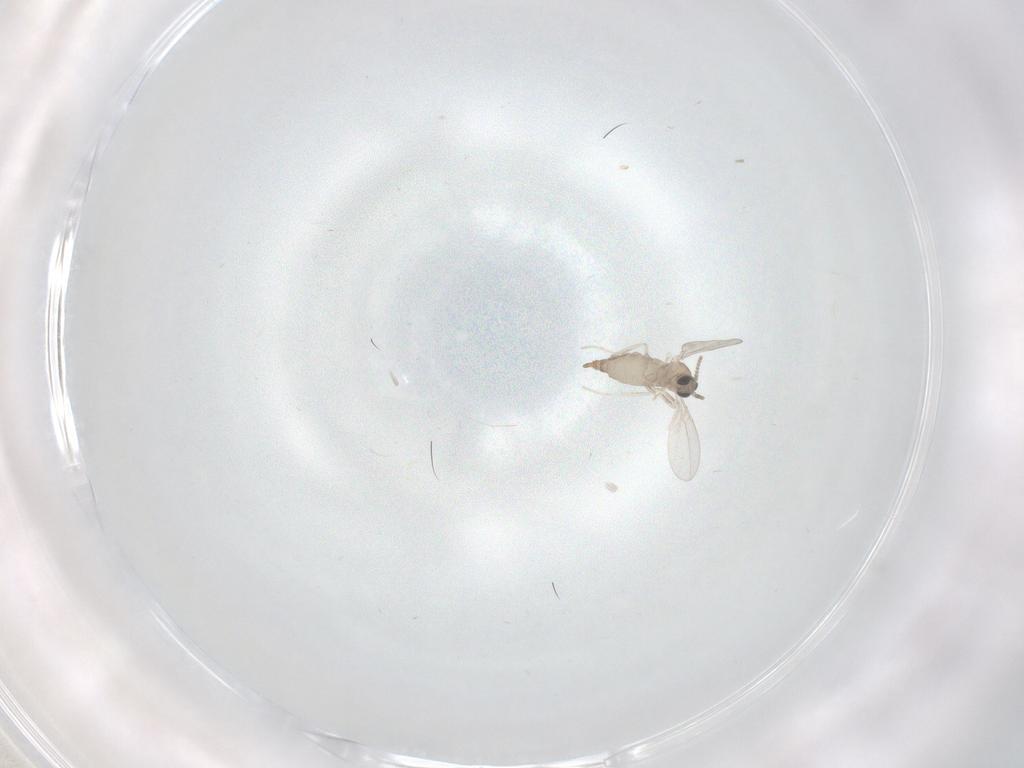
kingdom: Animalia
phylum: Arthropoda
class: Insecta
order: Diptera
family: Cecidomyiidae
